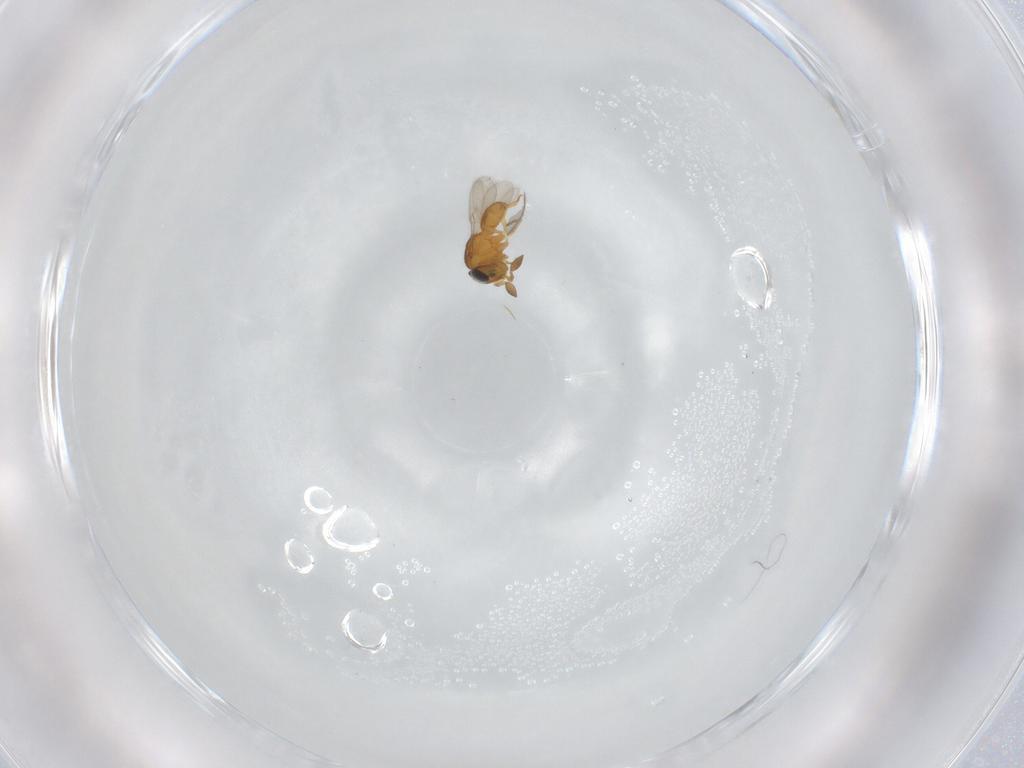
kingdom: Animalia
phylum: Arthropoda
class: Insecta
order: Hymenoptera
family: Scelionidae
